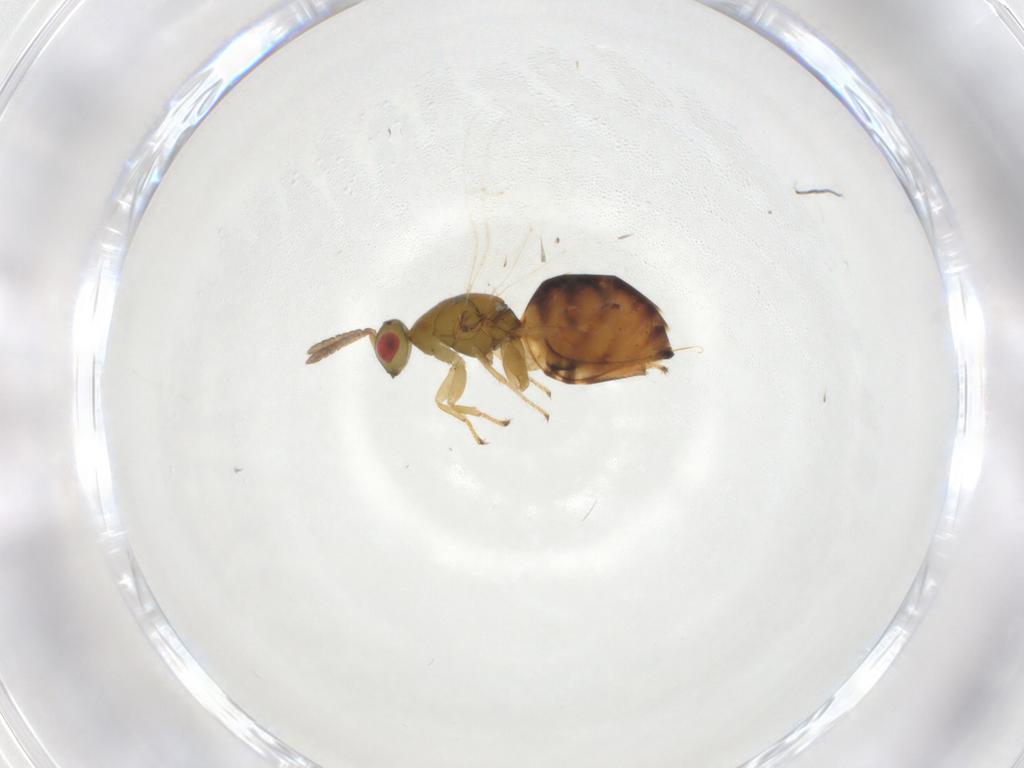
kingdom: Animalia
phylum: Arthropoda
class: Insecta
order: Hymenoptera
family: Epichrysomallidae
